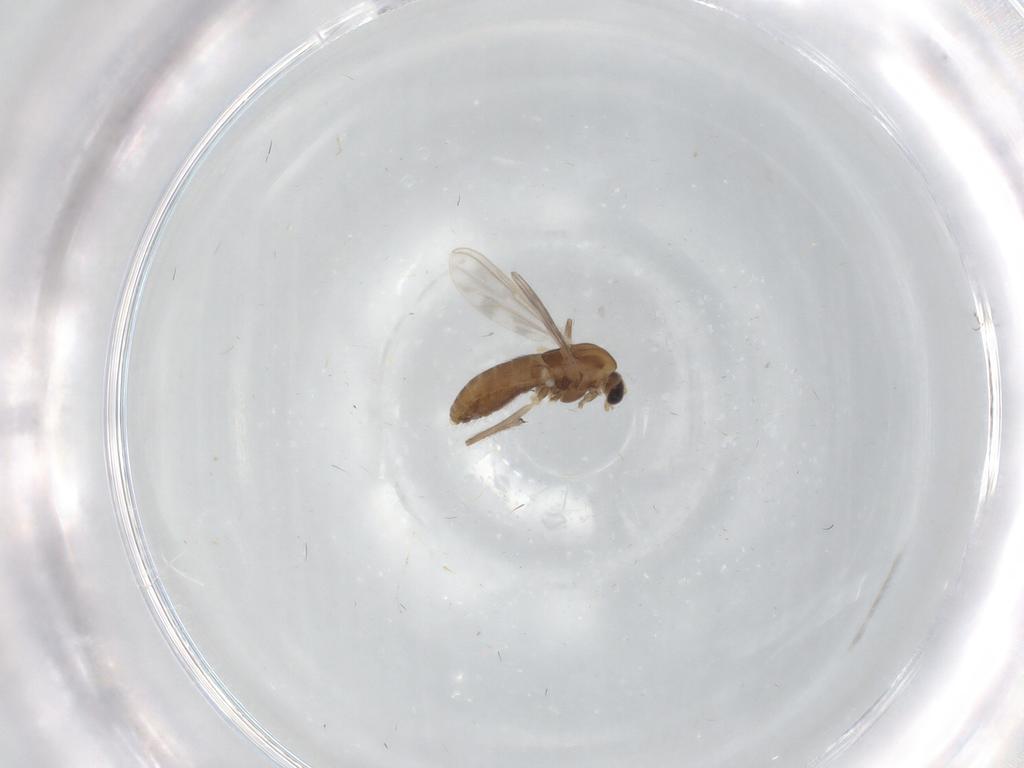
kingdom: Animalia
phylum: Arthropoda
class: Insecta
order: Diptera
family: Chironomidae
